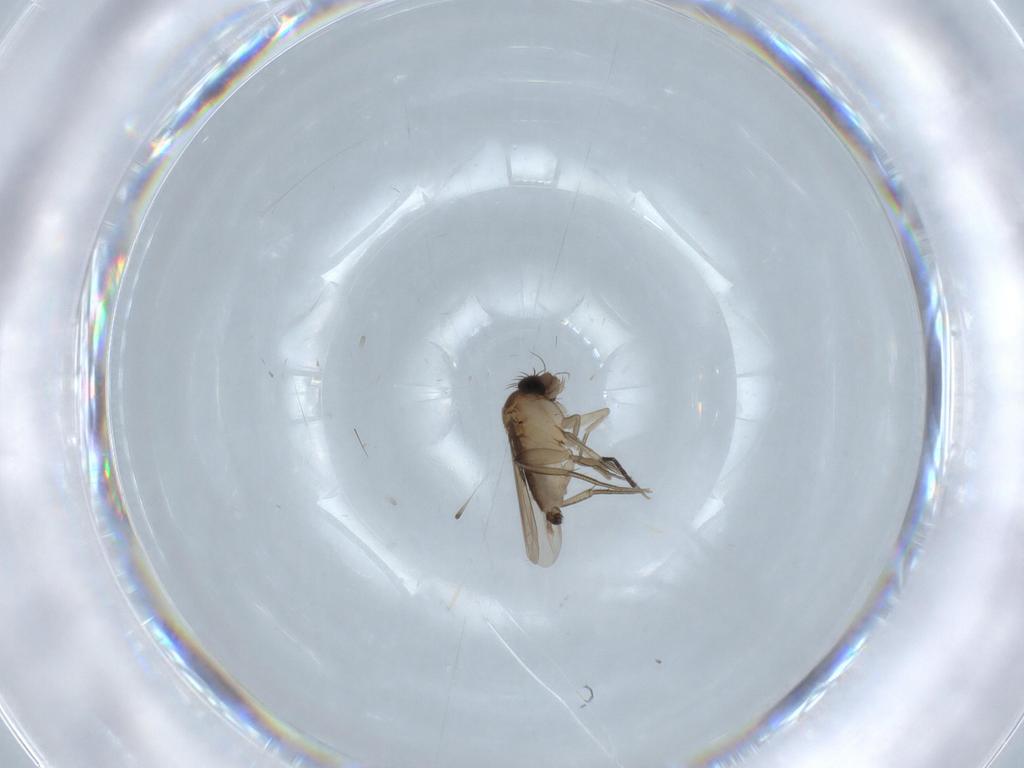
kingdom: Animalia
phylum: Arthropoda
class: Insecta
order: Diptera
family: Phoridae
